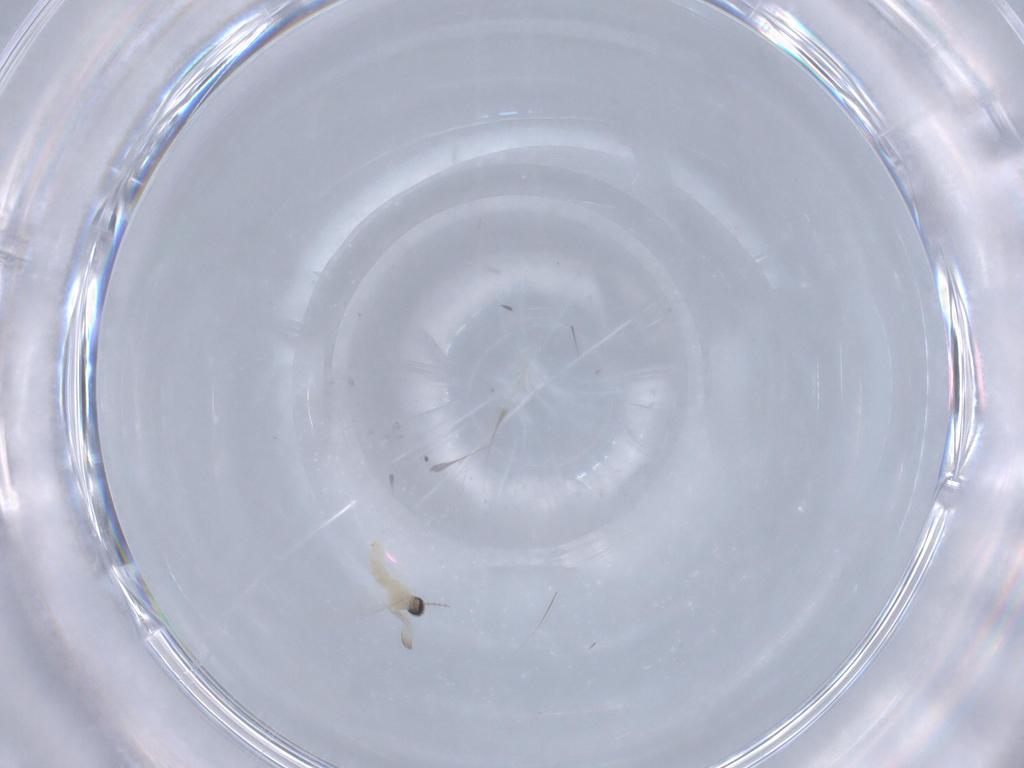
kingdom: Animalia
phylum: Arthropoda
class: Insecta
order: Diptera
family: Cecidomyiidae
